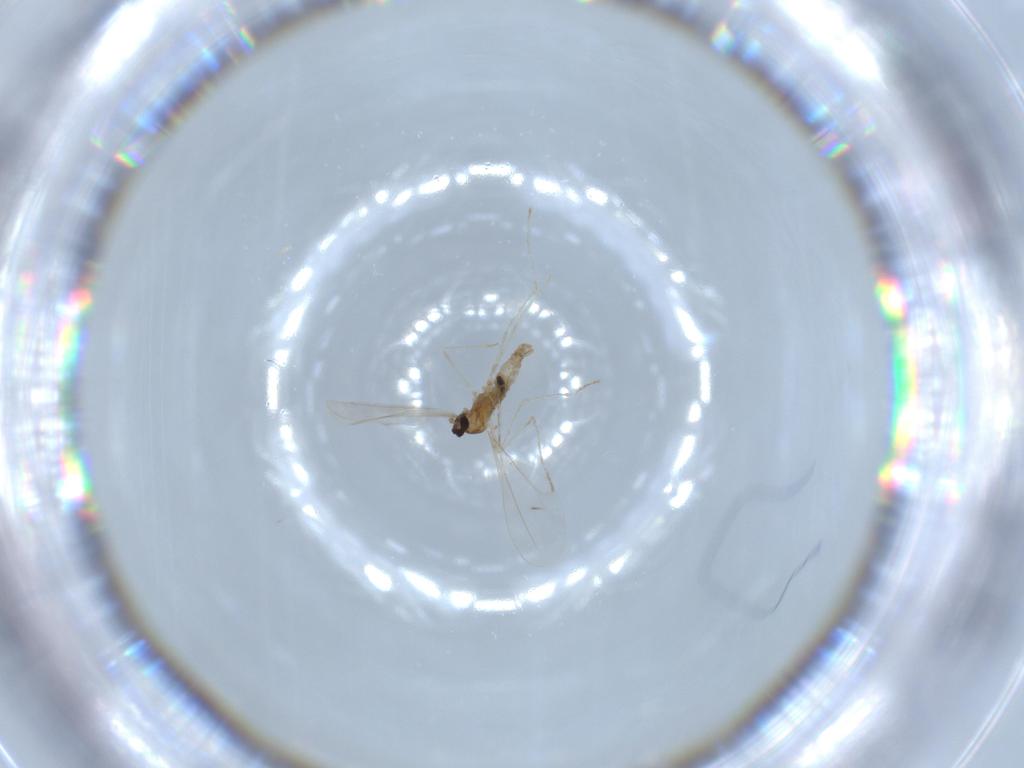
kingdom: Animalia
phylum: Arthropoda
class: Insecta
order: Diptera
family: Cecidomyiidae
